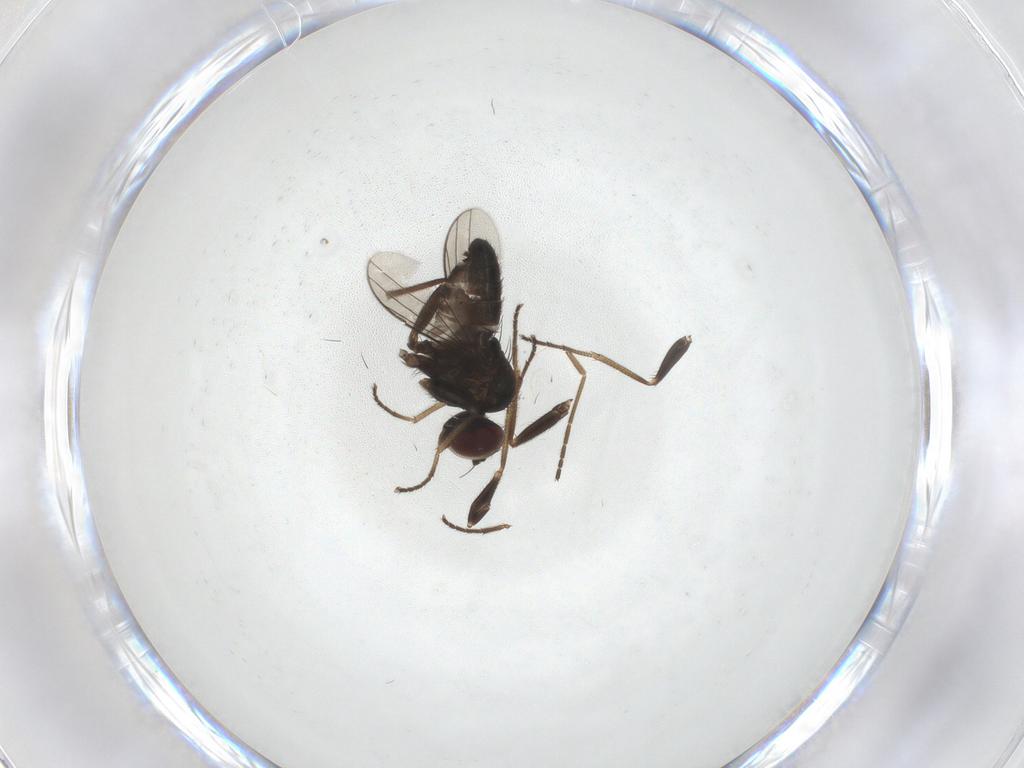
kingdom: Animalia
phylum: Arthropoda
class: Insecta
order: Diptera
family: Dolichopodidae
